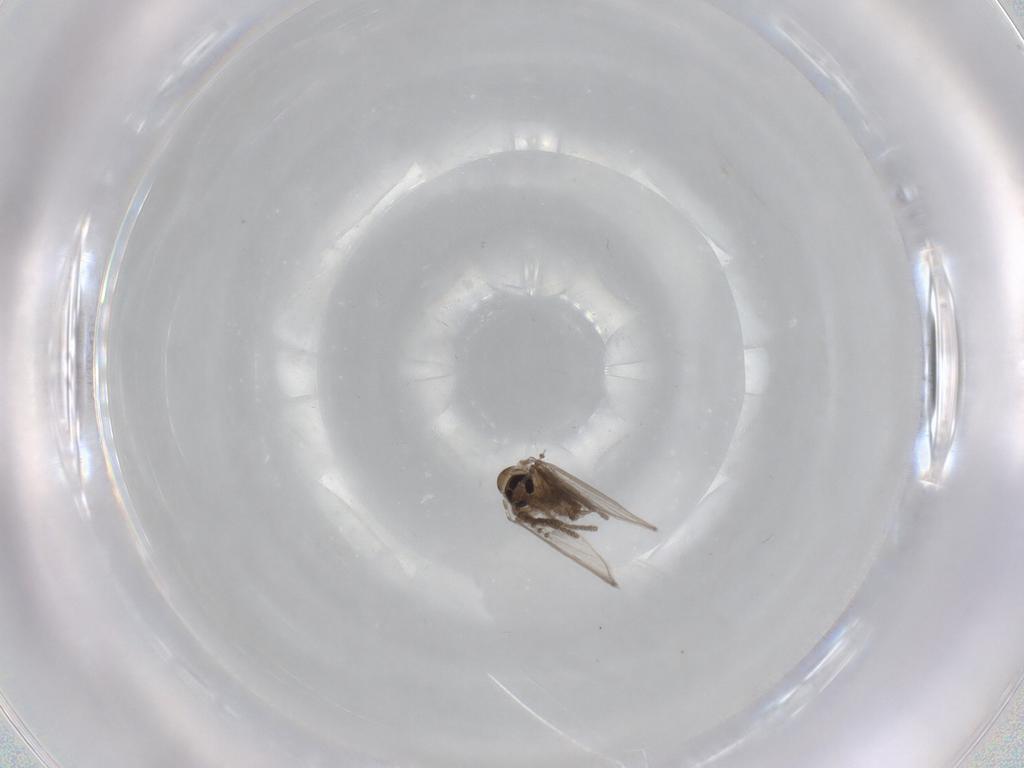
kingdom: Animalia
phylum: Arthropoda
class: Insecta
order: Diptera
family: Psychodidae
